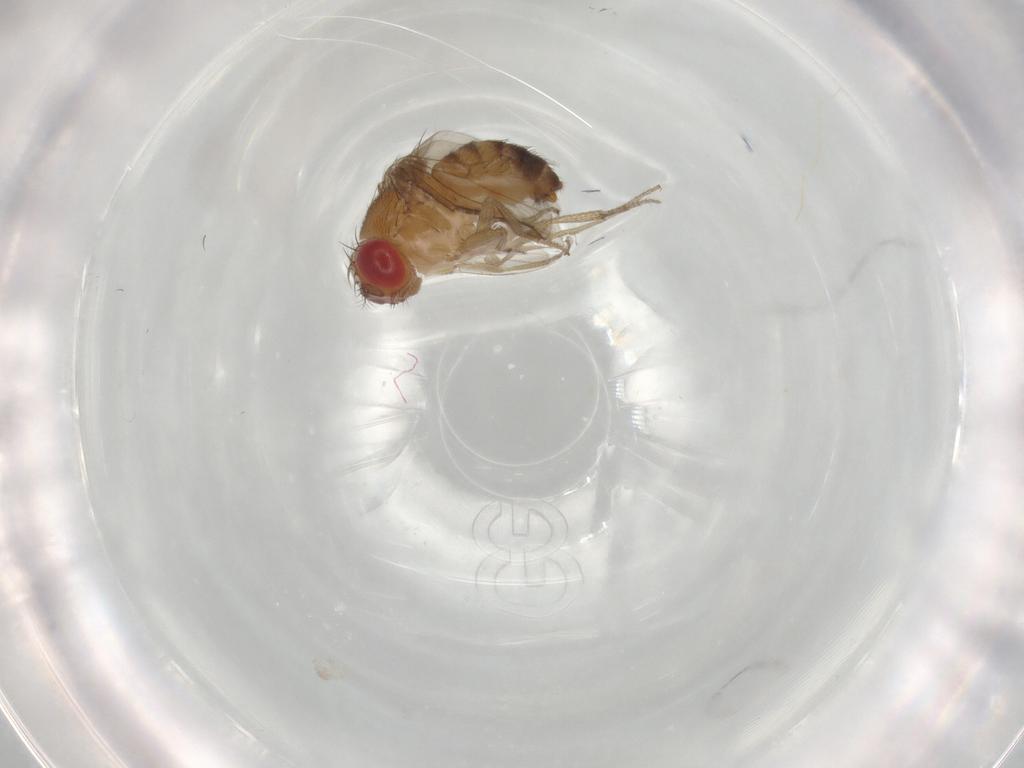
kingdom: Animalia
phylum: Arthropoda
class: Insecta
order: Diptera
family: Drosophilidae
